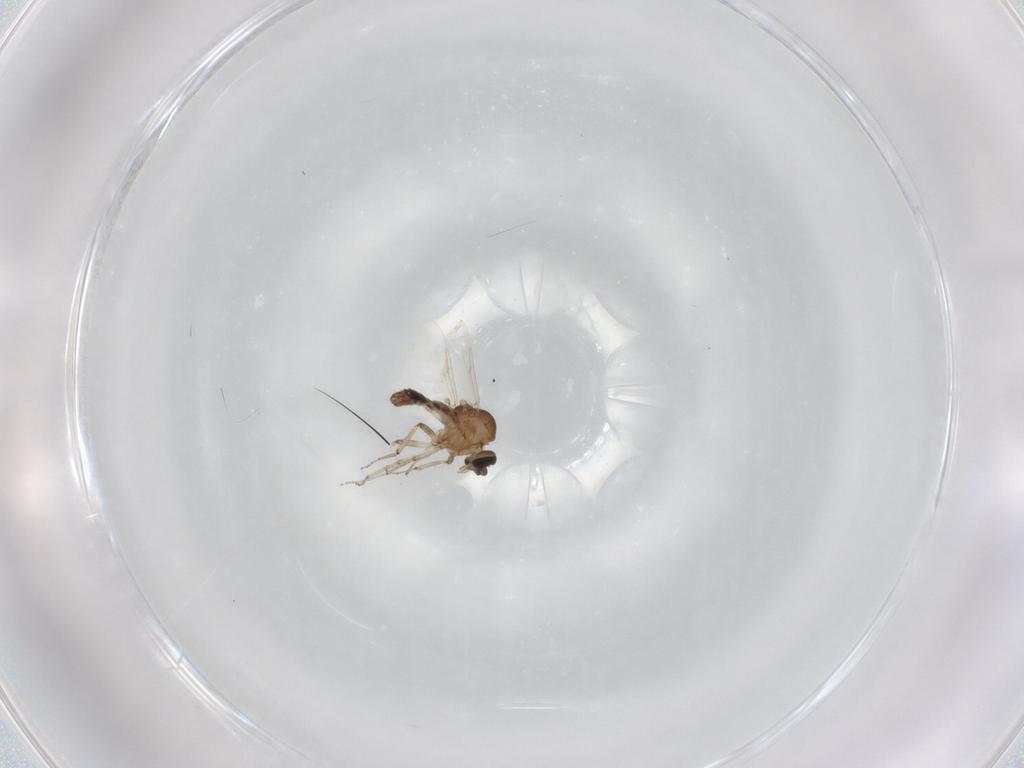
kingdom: Animalia
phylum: Arthropoda
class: Insecta
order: Diptera
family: Ceratopogonidae
